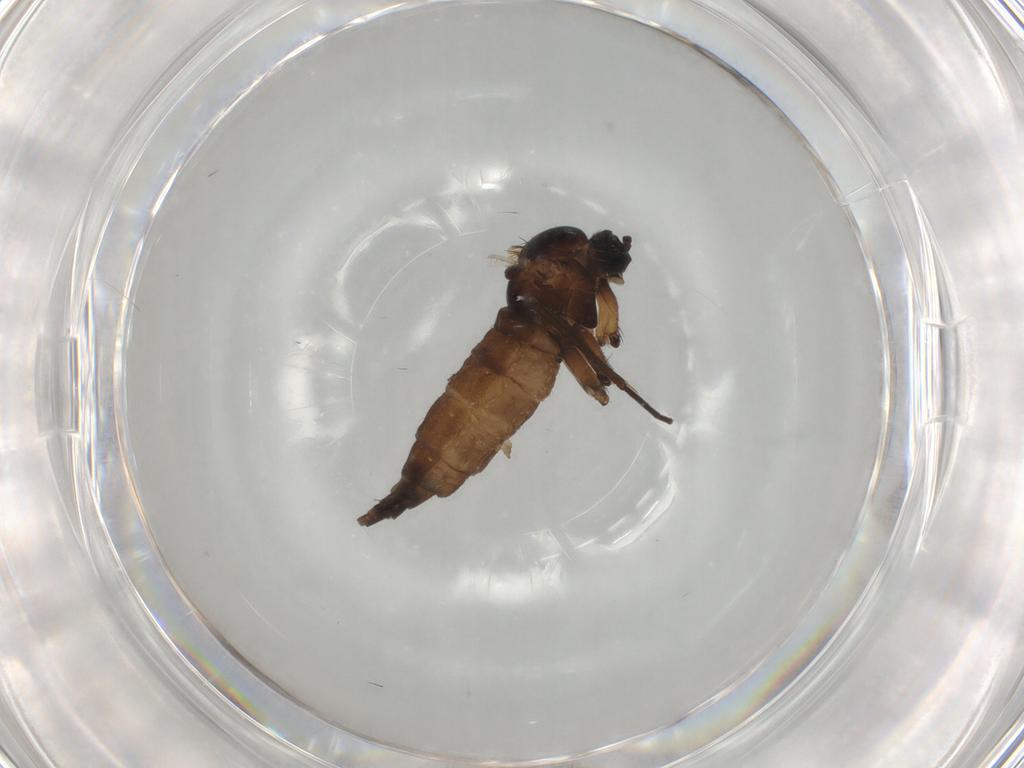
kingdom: Animalia
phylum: Arthropoda
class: Insecta
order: Diptera
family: Sciaridae
